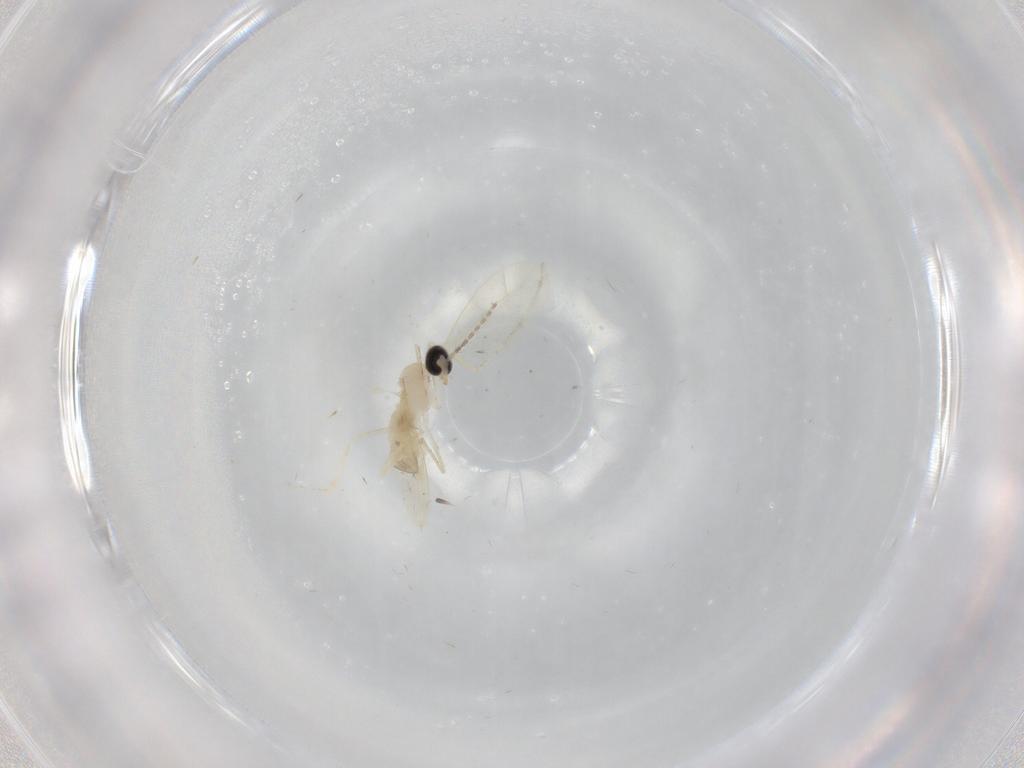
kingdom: Animalia
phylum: Arthropoda
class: Insecta
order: Diptera
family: Cecidomyiidae
